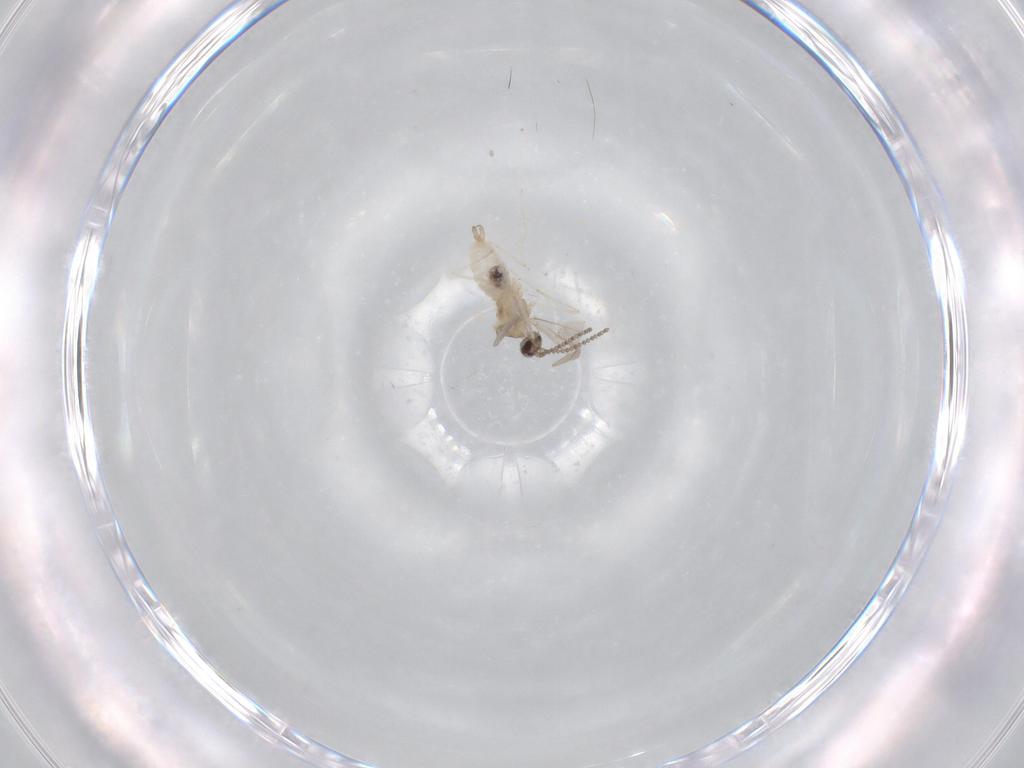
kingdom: Animalia
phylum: Arthropoda
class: Insecta
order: Diptera
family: Cecidomyiidae
